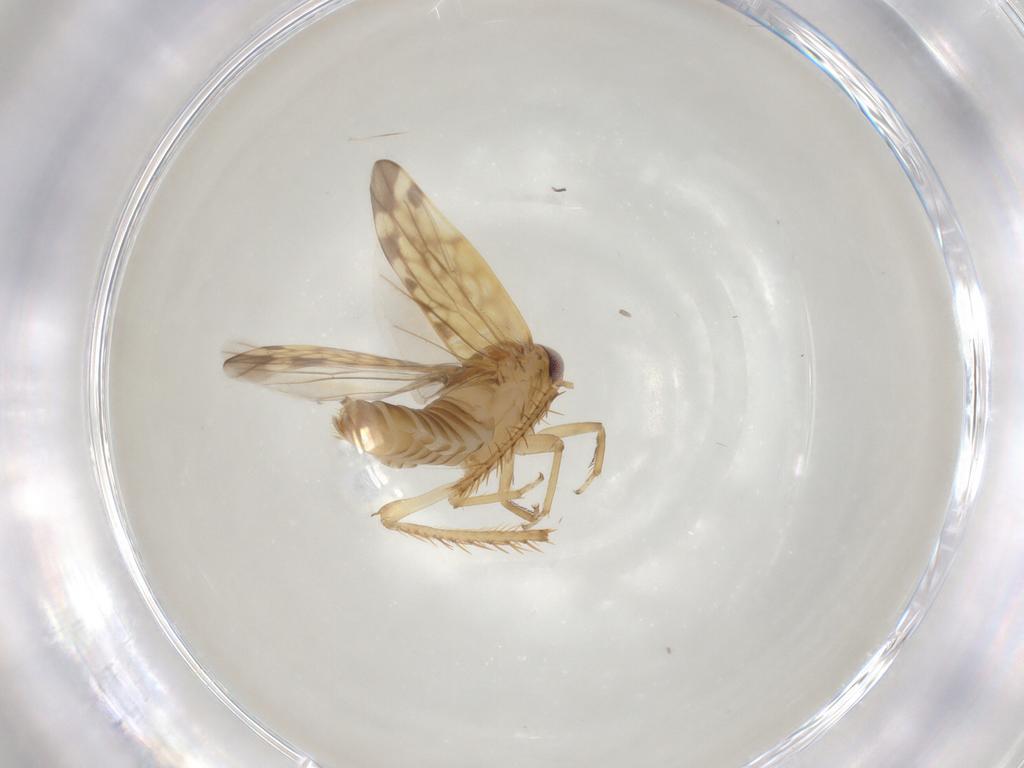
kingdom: Animalia
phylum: Arthropoda
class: Insecta
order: Hemiptera
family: Cicadellidae
